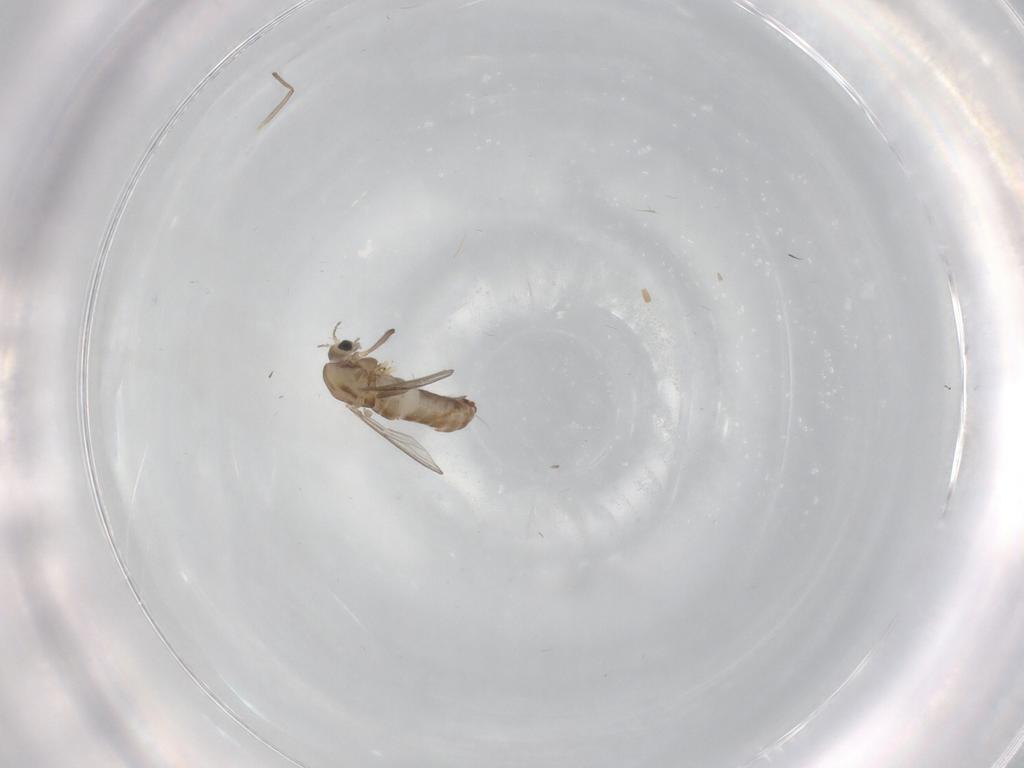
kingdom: Animalia
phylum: Arthropoda
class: Insecta
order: Diptera
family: Chironomidae
